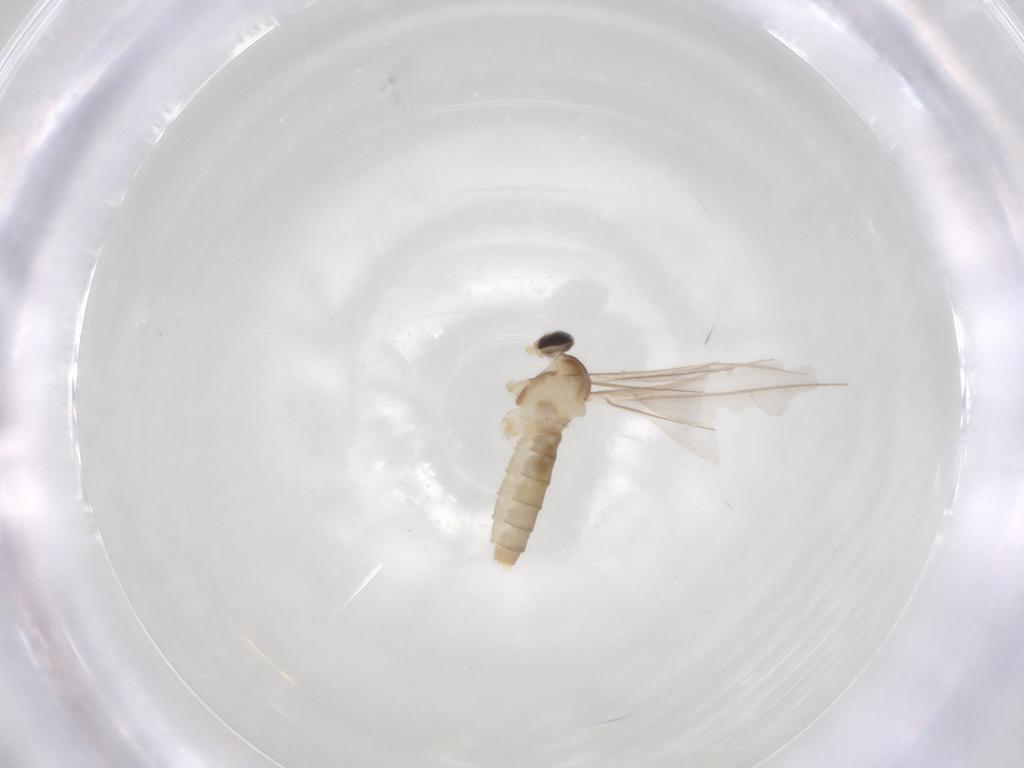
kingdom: Animalia
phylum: Arthropoda
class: Insecta
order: Diptera
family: Cecidomyiidae
